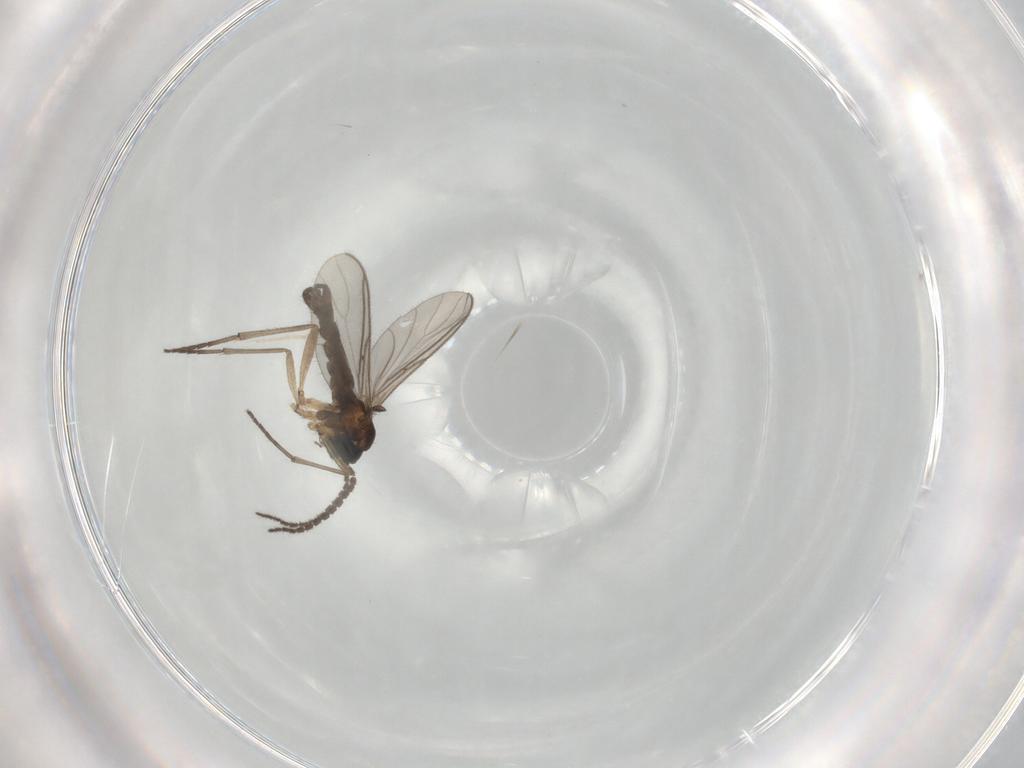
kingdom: Animalia
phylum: Arthropoda
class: Insecta
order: Diptera
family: Sciaridae
